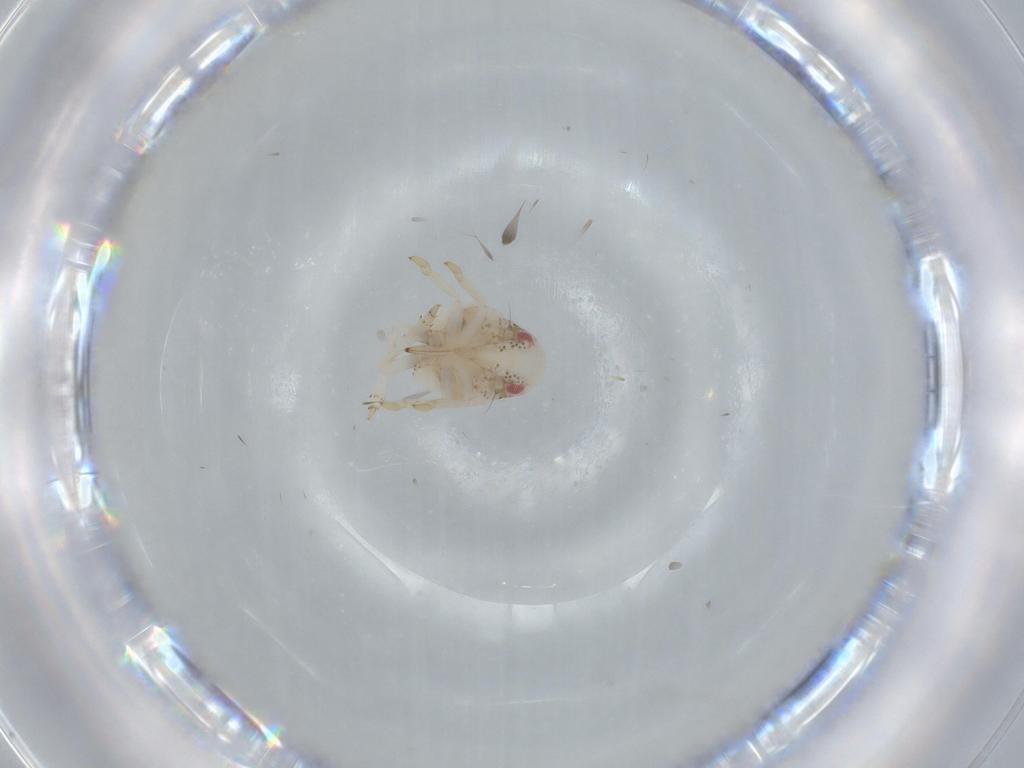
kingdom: Animalia
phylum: Arthropoda
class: Insecta
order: Hemiptera
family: Acanaloniidae
